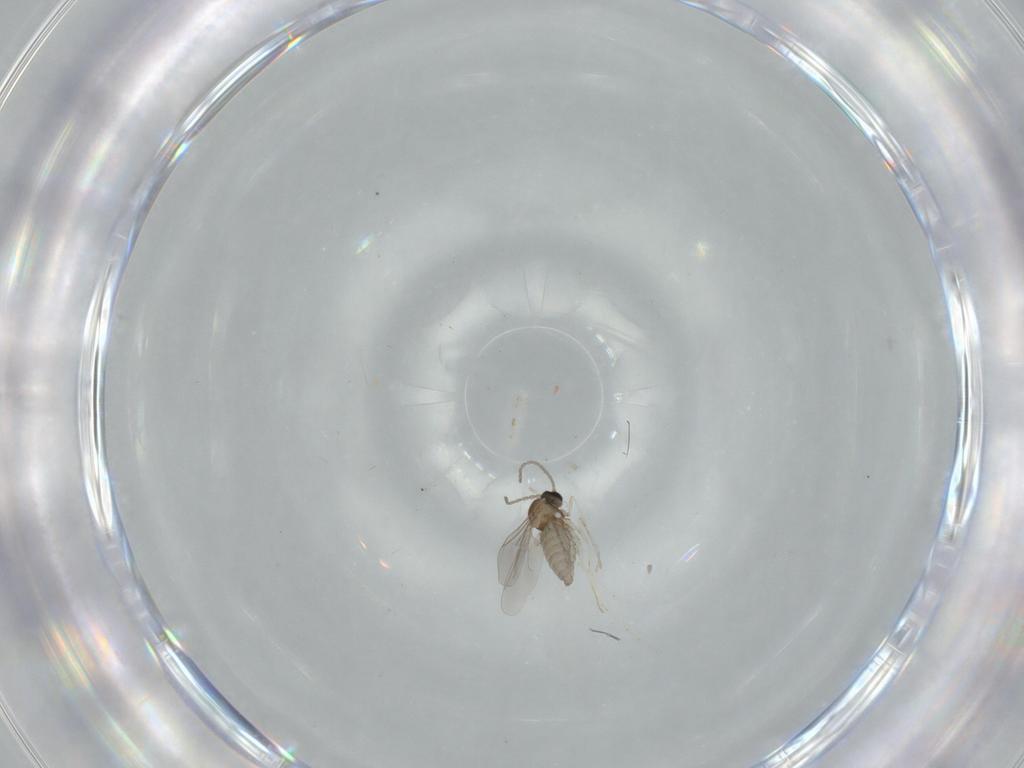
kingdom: Animalia
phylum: Arthropoda
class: Insecta
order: Diptera
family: Cecidomyiidae
